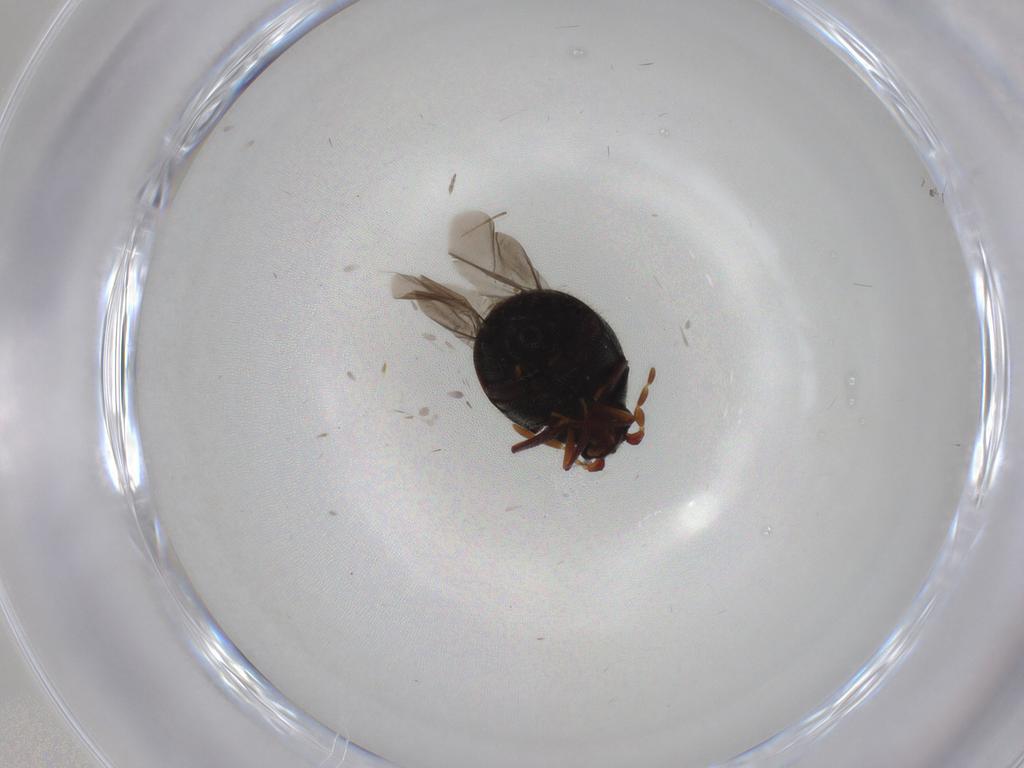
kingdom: Animalia
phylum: Arthropoda
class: Insecta
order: Coleoptera
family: Ptinidae
